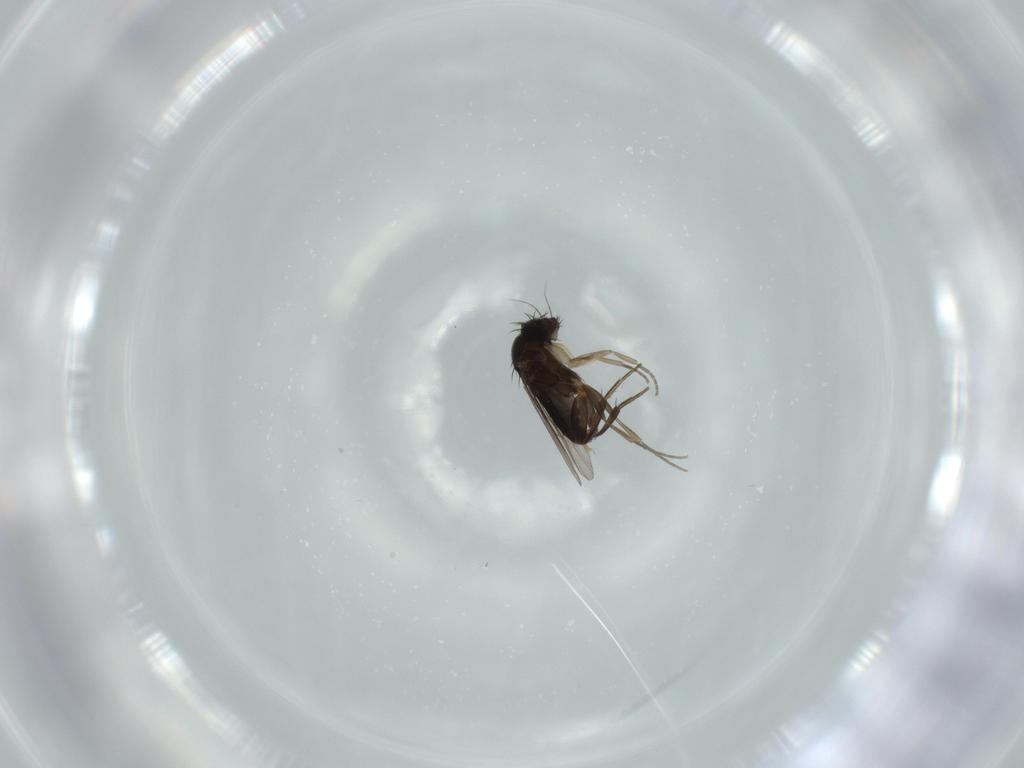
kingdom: Animalia
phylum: Arthropoda
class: Insecta
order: Diptera
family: Phoridae
